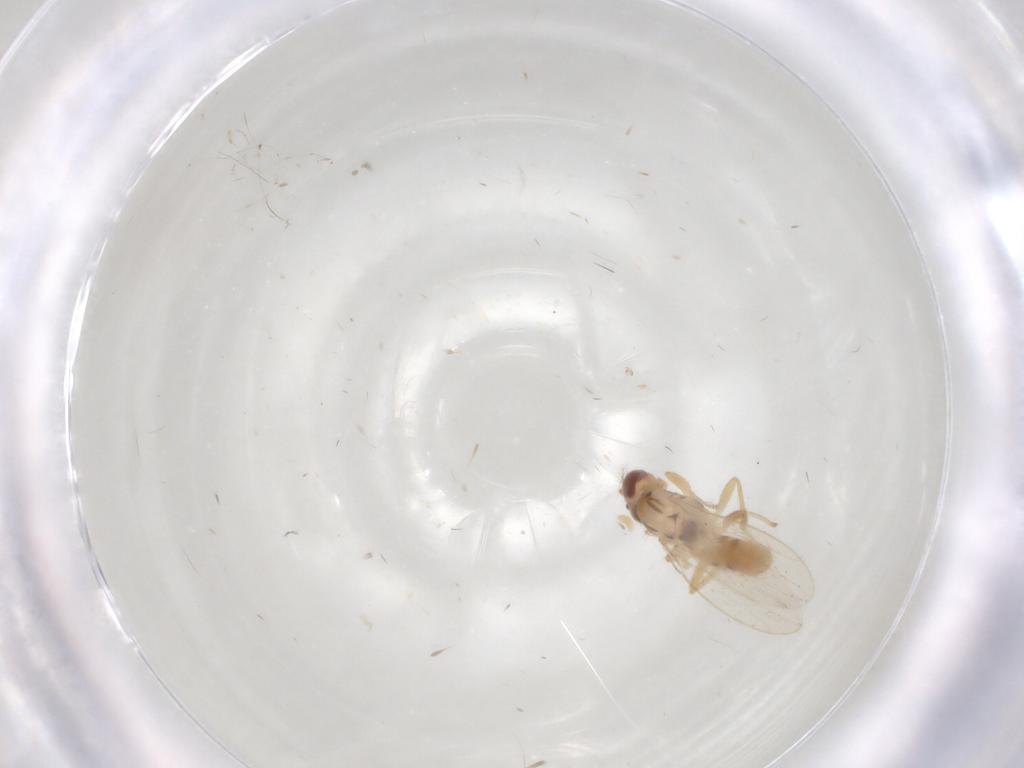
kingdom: Animalia
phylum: Arthropoda
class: Insecta
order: Diptera
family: Periscelididae
